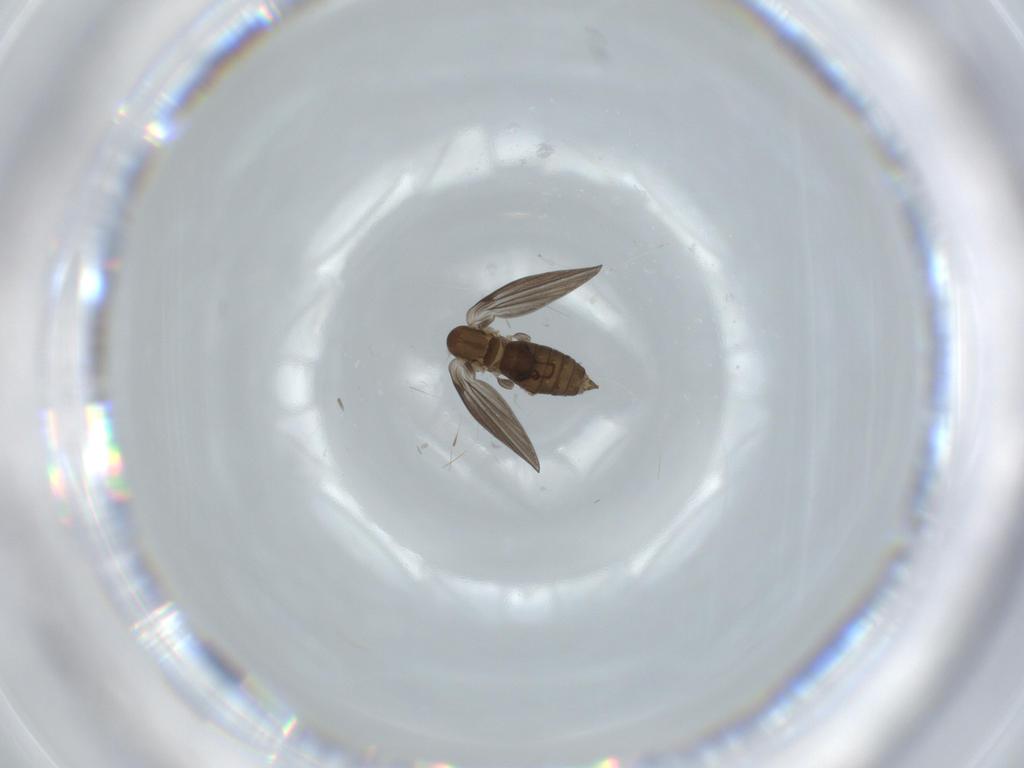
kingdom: Animalia
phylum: Arthropoda
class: Insecta
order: Diptera
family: Psychodidae
